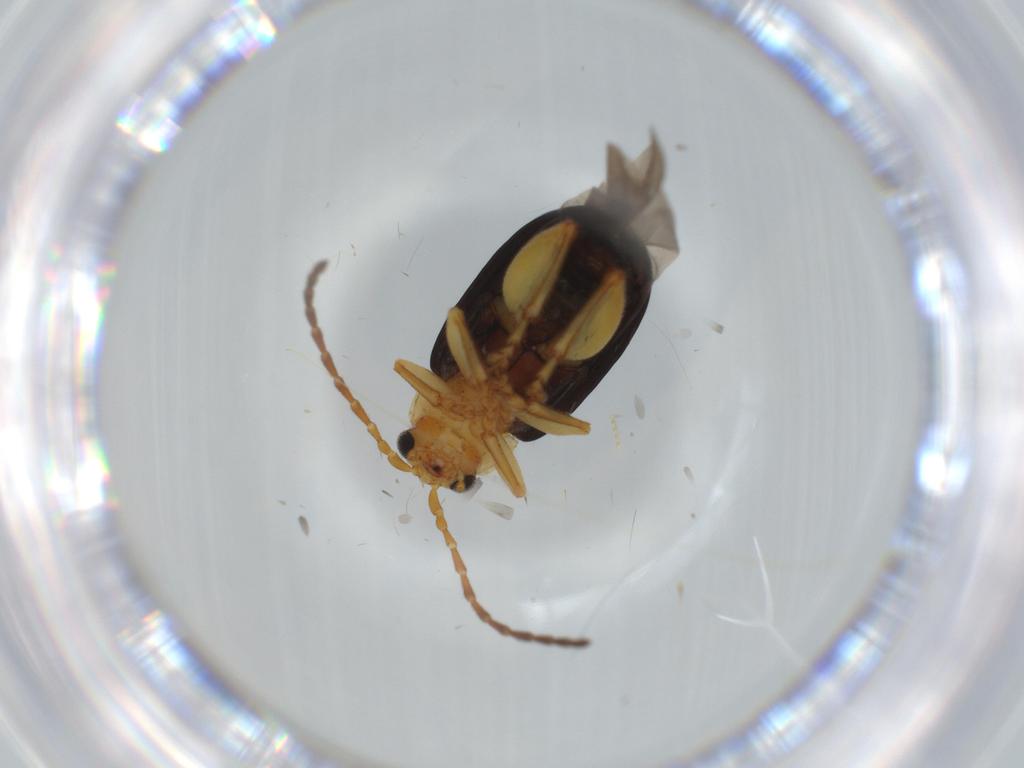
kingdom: Animalia
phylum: Arthropoda
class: Insecta
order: Coleoptera
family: Chrysomelidae
